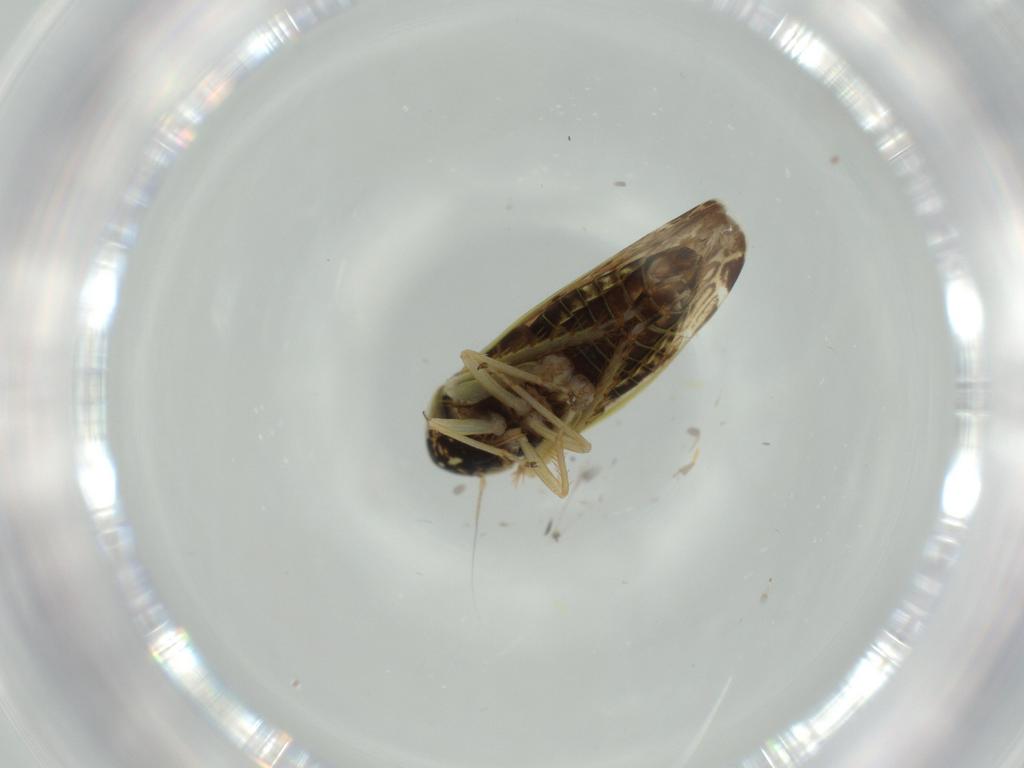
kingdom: Animalia
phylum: Arthropoda
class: Insecta
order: Hemiptera
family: Cicadellidae
